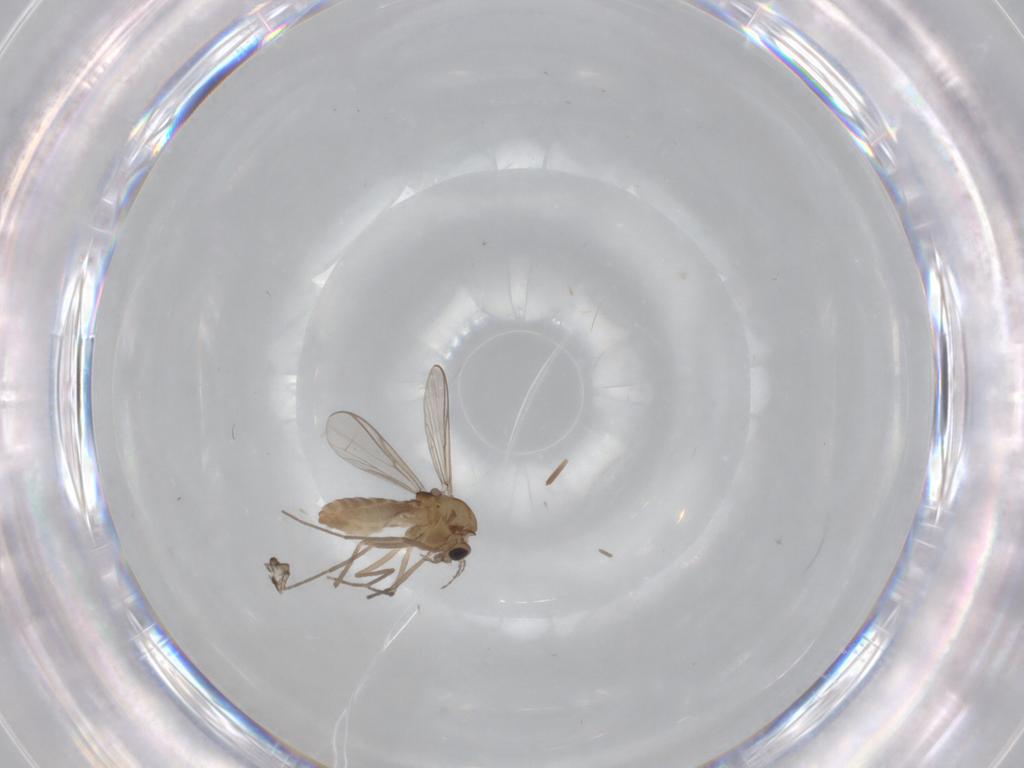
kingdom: Animalia
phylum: Arthropoda
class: Insecta
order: Diptera
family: Chironomidae
